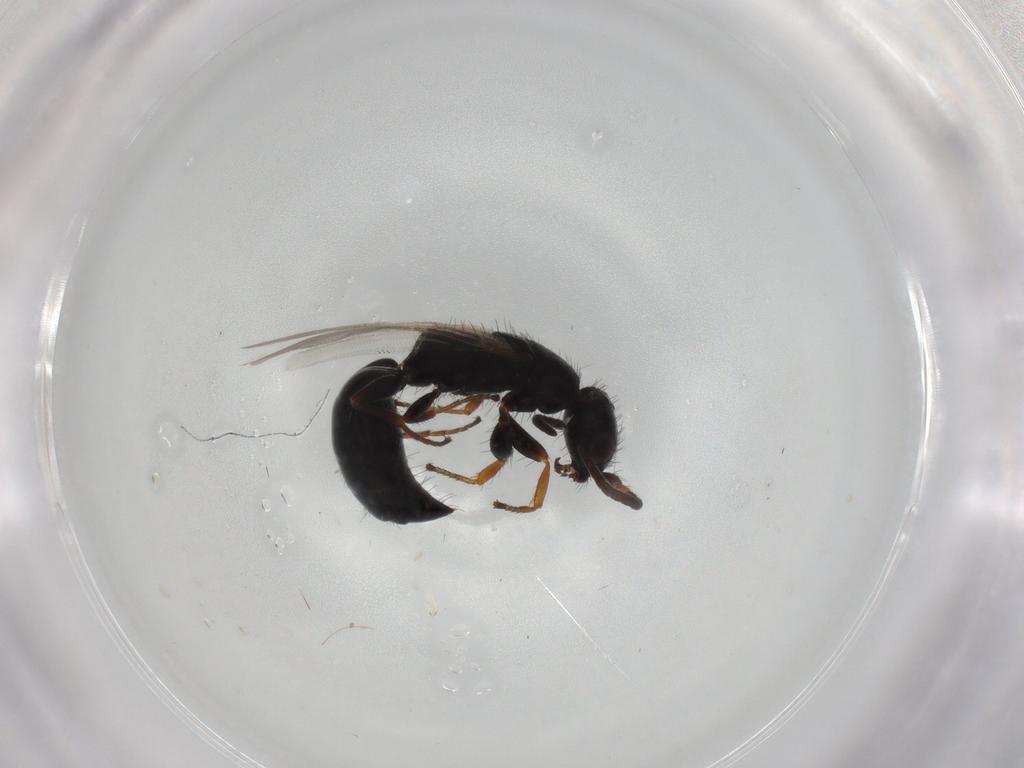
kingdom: Animalia
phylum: Arthropoda
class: Insecta
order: Hymenoptera
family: Bethylidae
